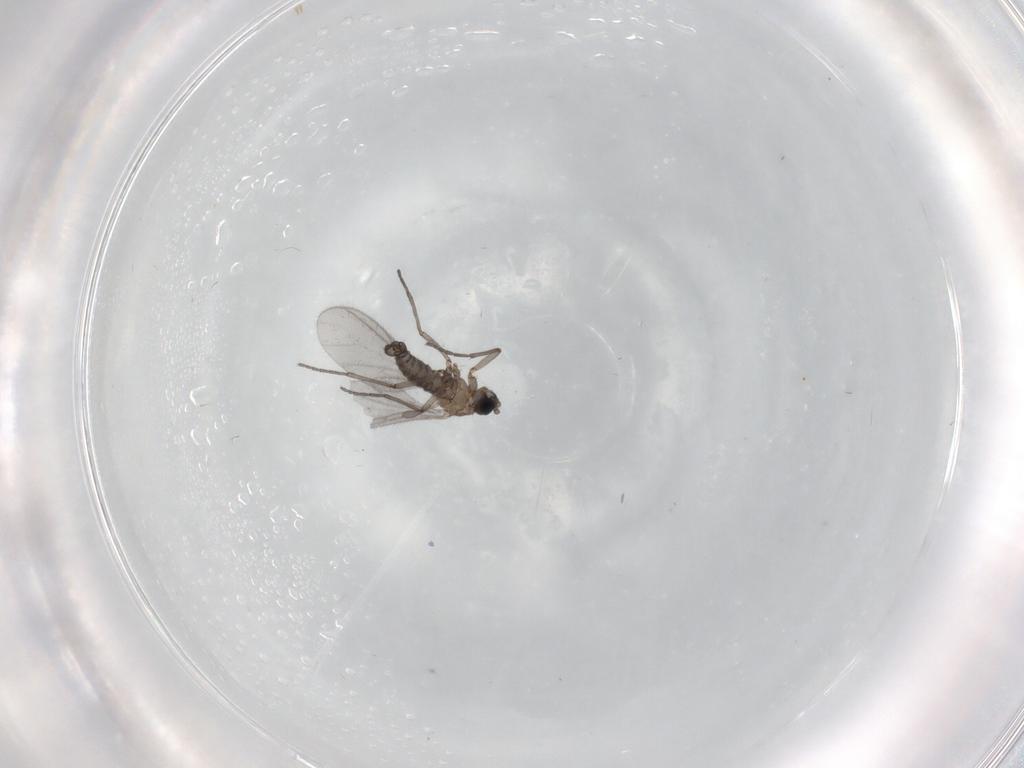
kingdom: Animalia
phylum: Arthropoda
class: Insecta
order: Diptera
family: Sciaridae
